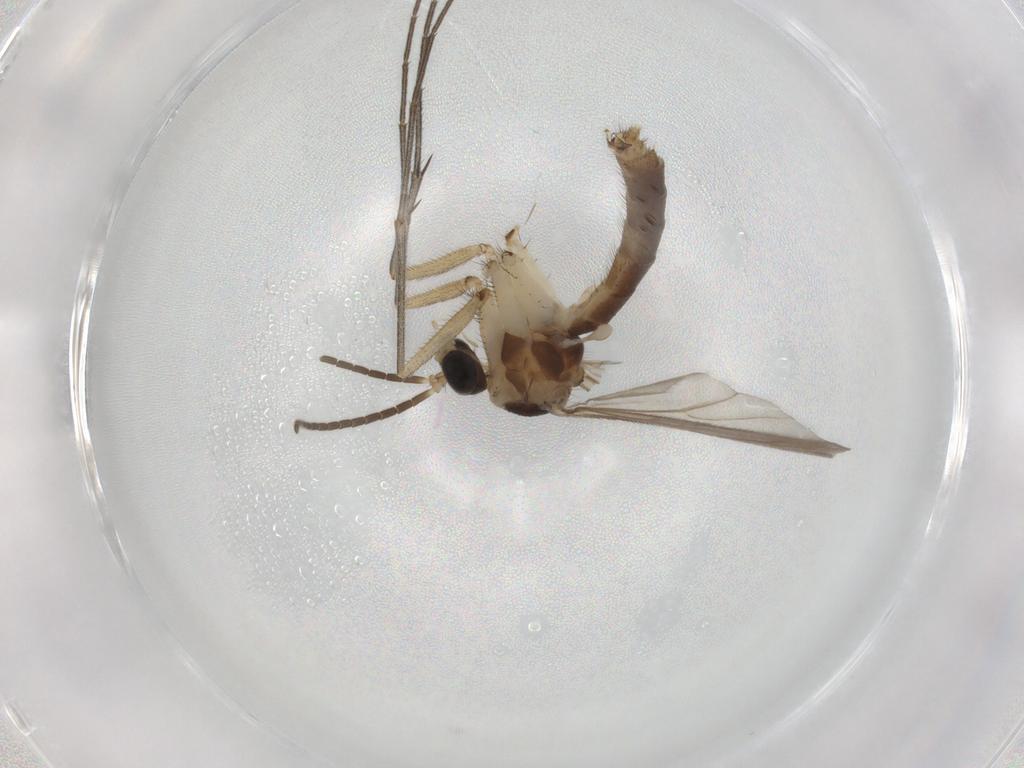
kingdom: Animalia
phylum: Arthropoda
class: Insecta
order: Diptera
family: Mycetophilidae
